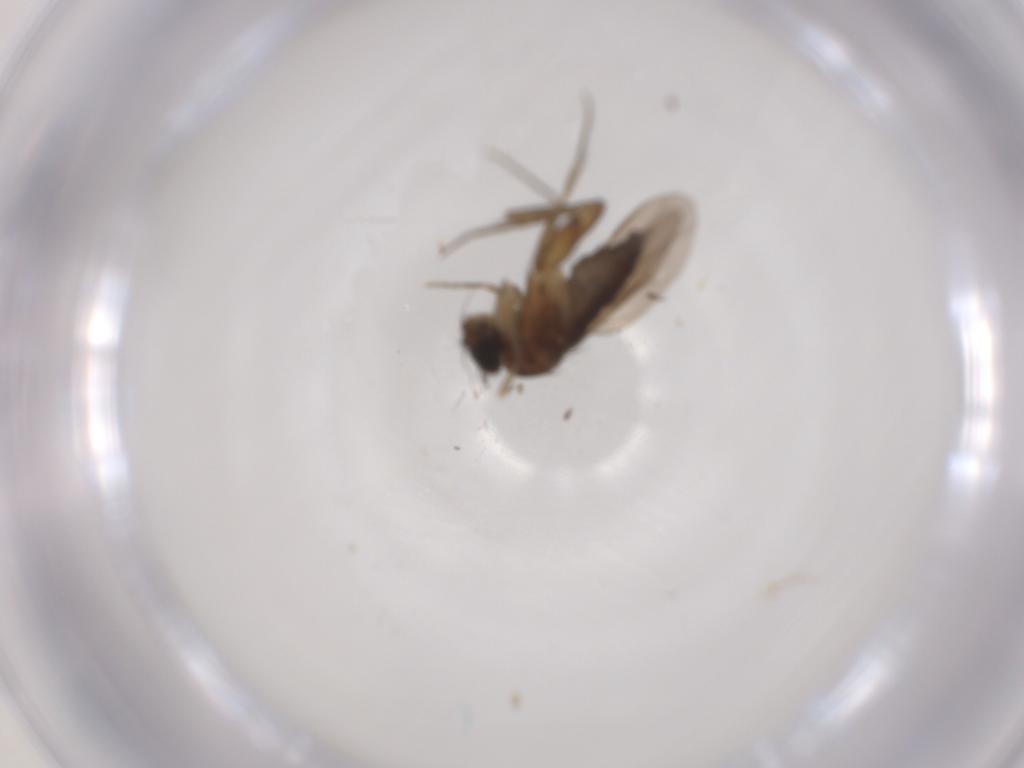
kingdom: Animalia
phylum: Arthropoda
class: Insecta
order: Diptera
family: Phoridae
